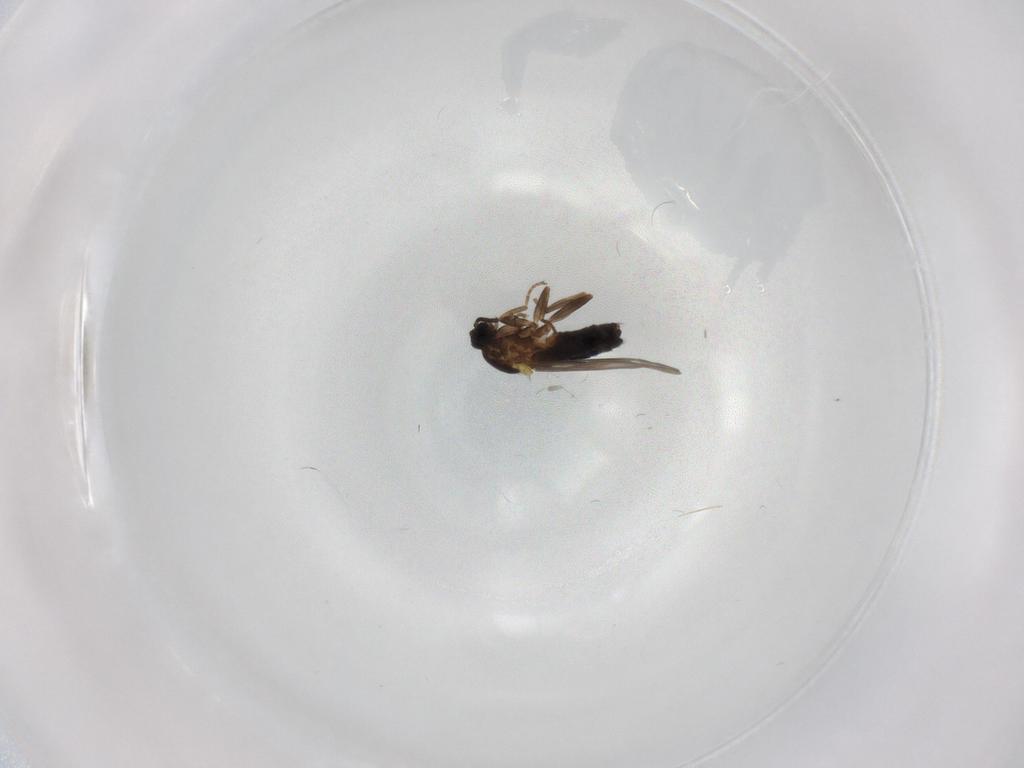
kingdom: Animalia
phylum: Arthropoda
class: Insecta
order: Diptera
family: Scatopsidae
